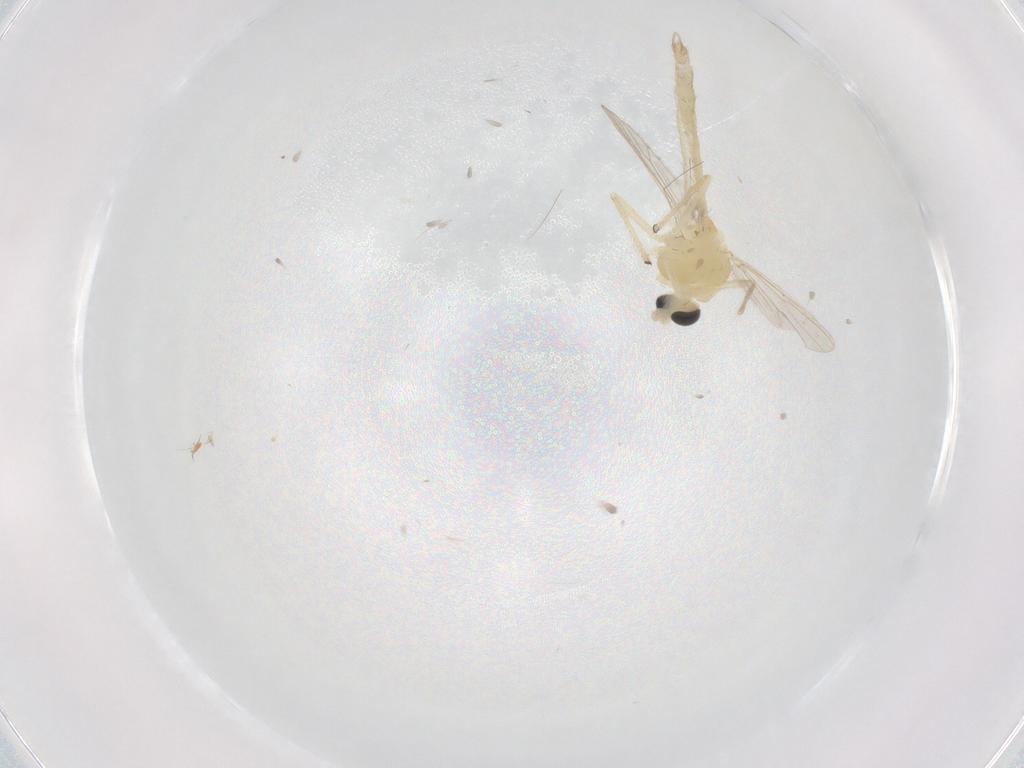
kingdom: Animalia
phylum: Arthropoda
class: Insecta
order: Diptera
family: Chironomidae
